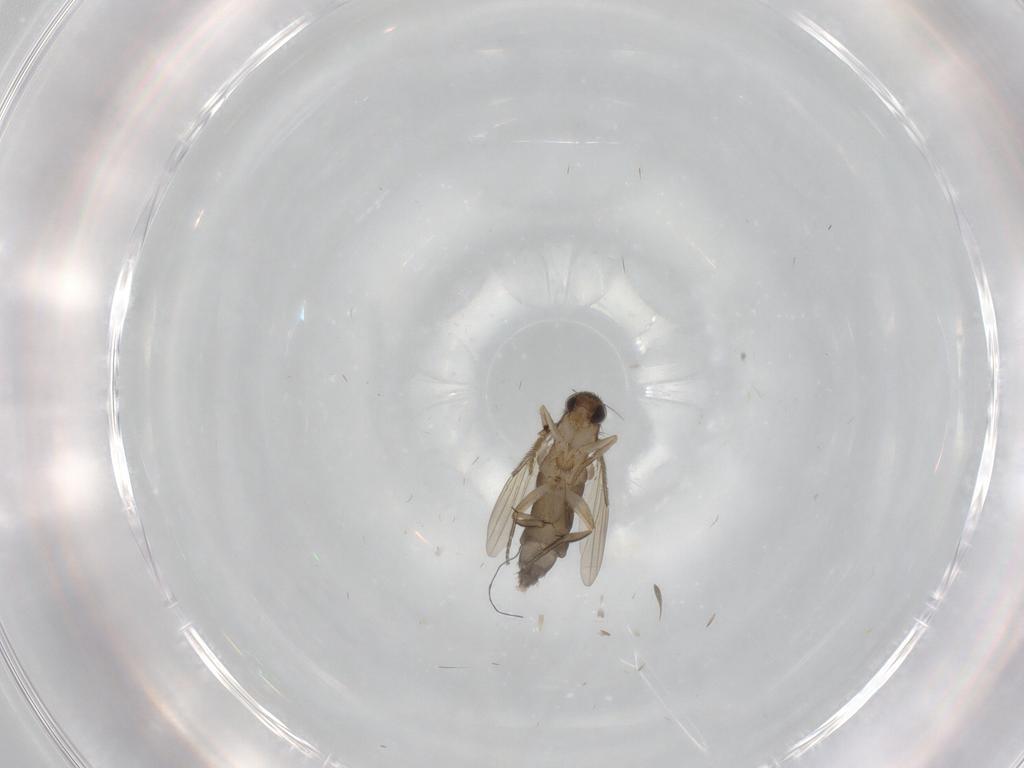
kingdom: Animalia
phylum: Arthropoda
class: Insecta
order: Diptera
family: Phoridae
